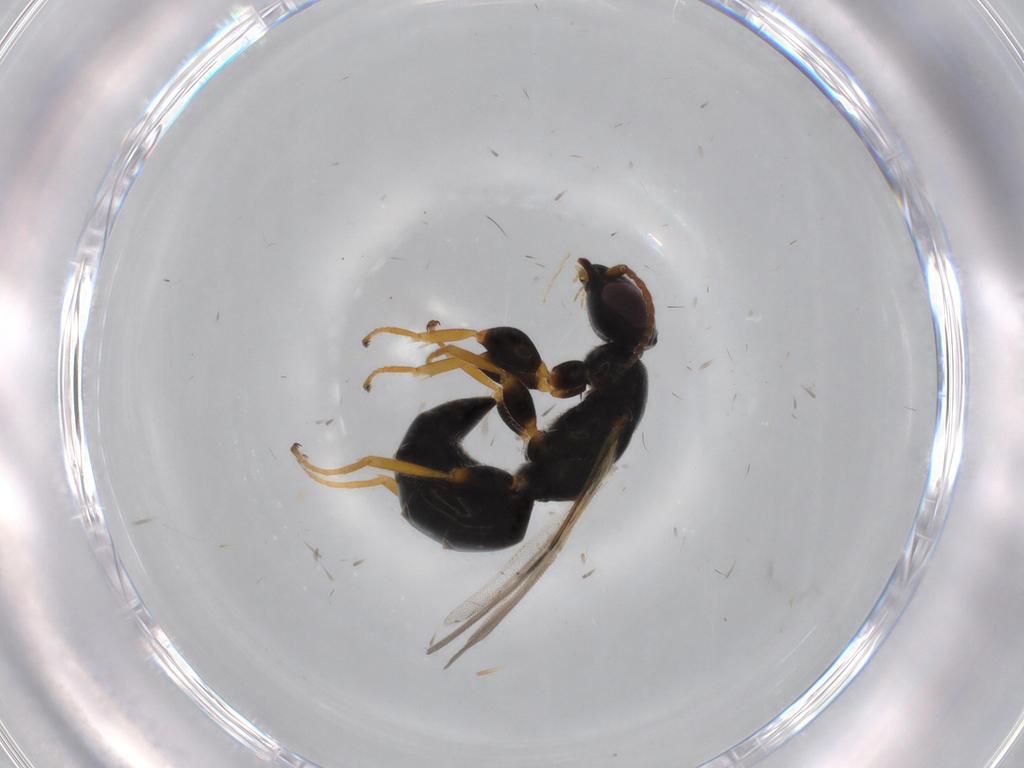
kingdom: Animalia
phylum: Arthropoda
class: Insecta
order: Hymenoptera
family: Bethylidae
